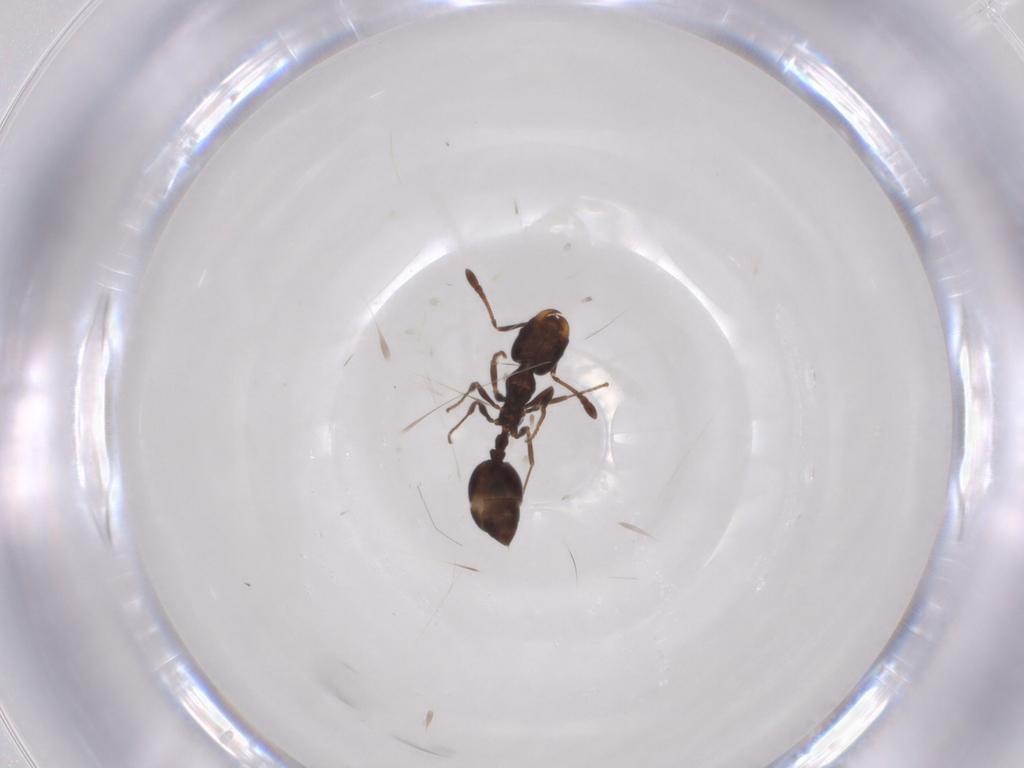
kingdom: Animalia
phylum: Arthropoda
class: Insecta
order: Hymenoptera
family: Formicidae
